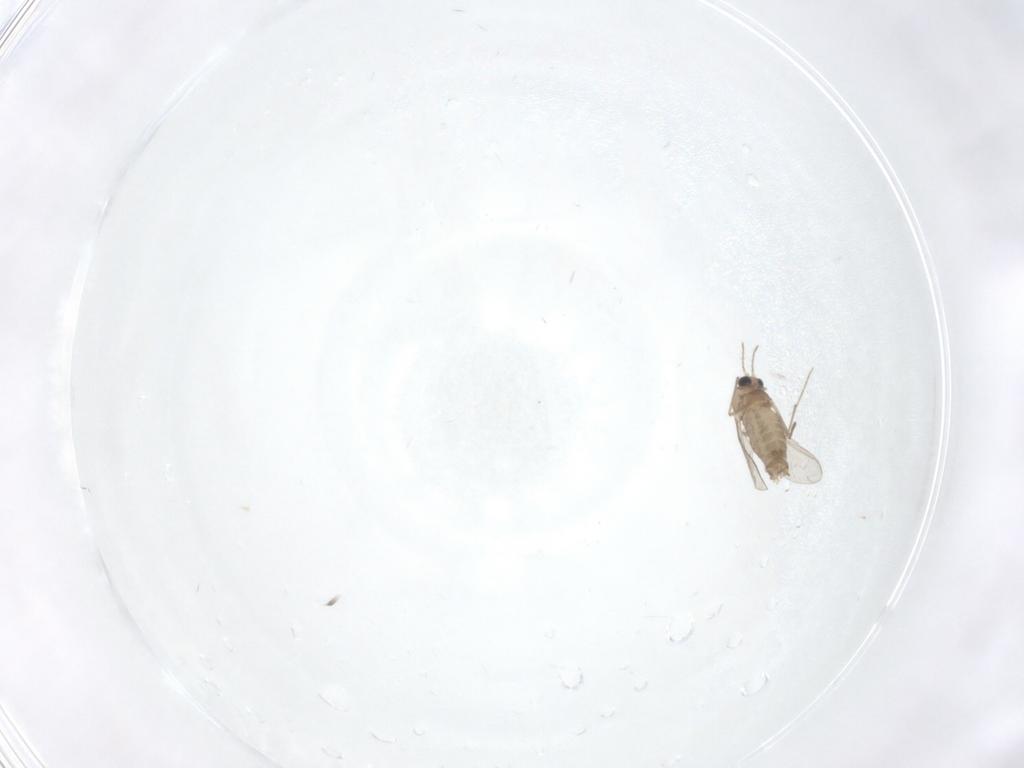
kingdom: Animalia
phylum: Arthropoda
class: Insecta
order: Diptera
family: Chironomidae
